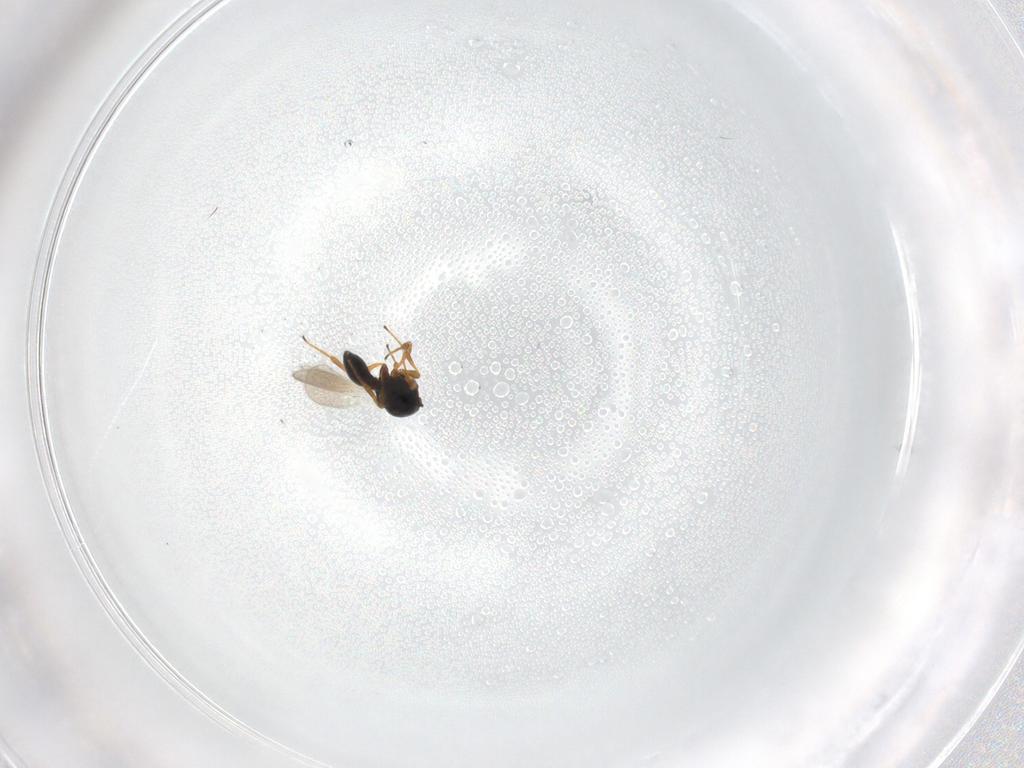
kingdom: Animalia
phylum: Arthropoda
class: Insecta
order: Hymenoptera
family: Platygastridae
